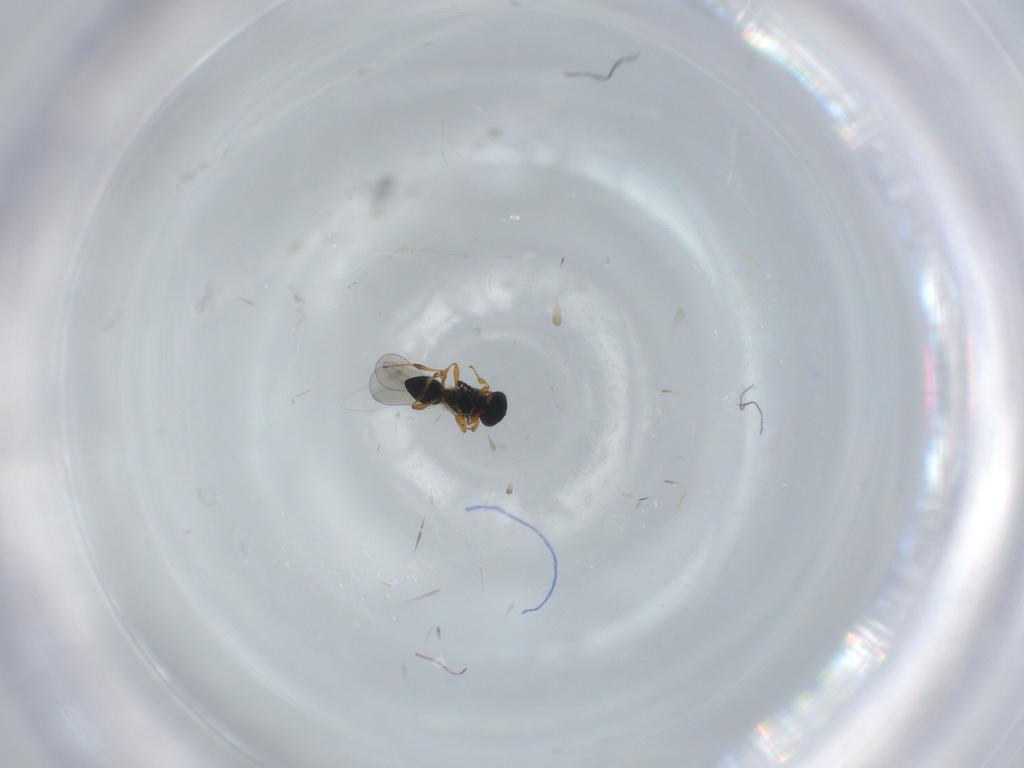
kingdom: Animalia
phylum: Arthropoda
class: Insecta
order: Hymenoptera
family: Platygastridae
